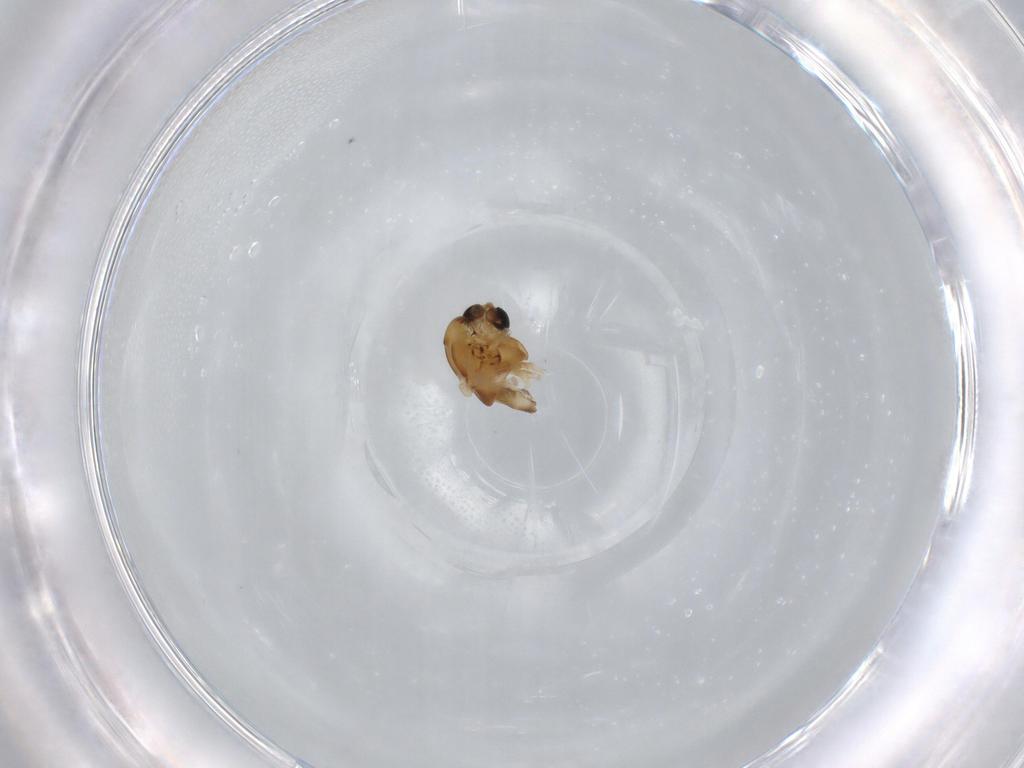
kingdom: Animalia
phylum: Arthropoda
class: Insecta
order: Diptera
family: Chironomidae
